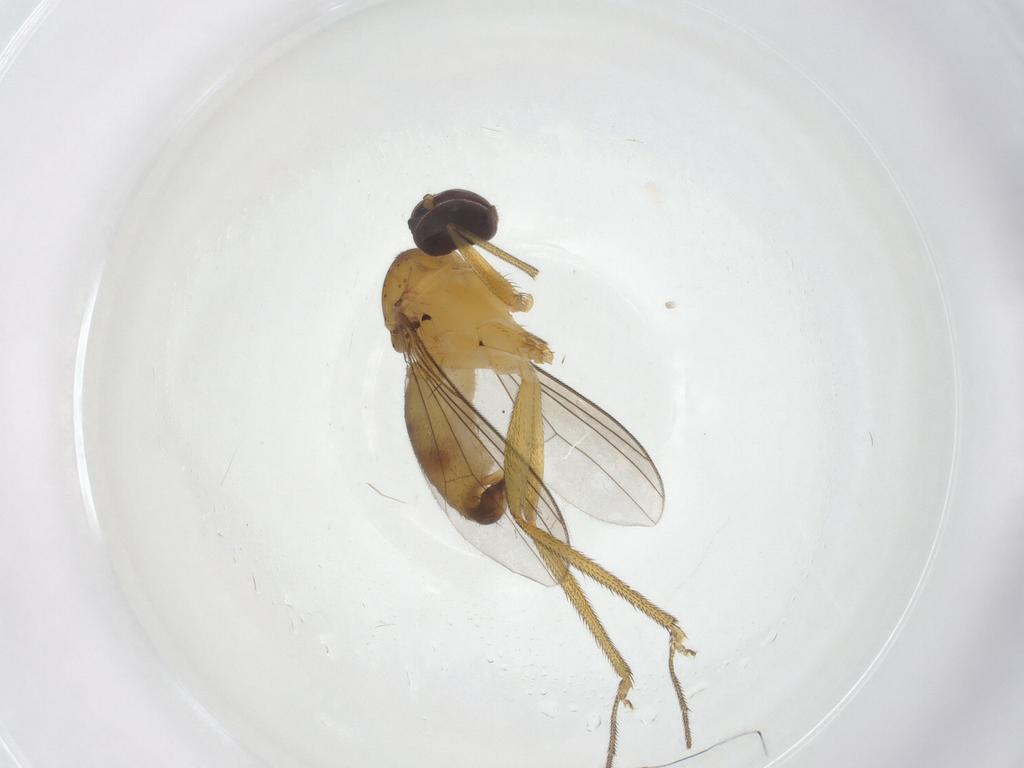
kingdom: Animalia
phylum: Arthropoda
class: Insecta
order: Diptera
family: Dolichopodidae
